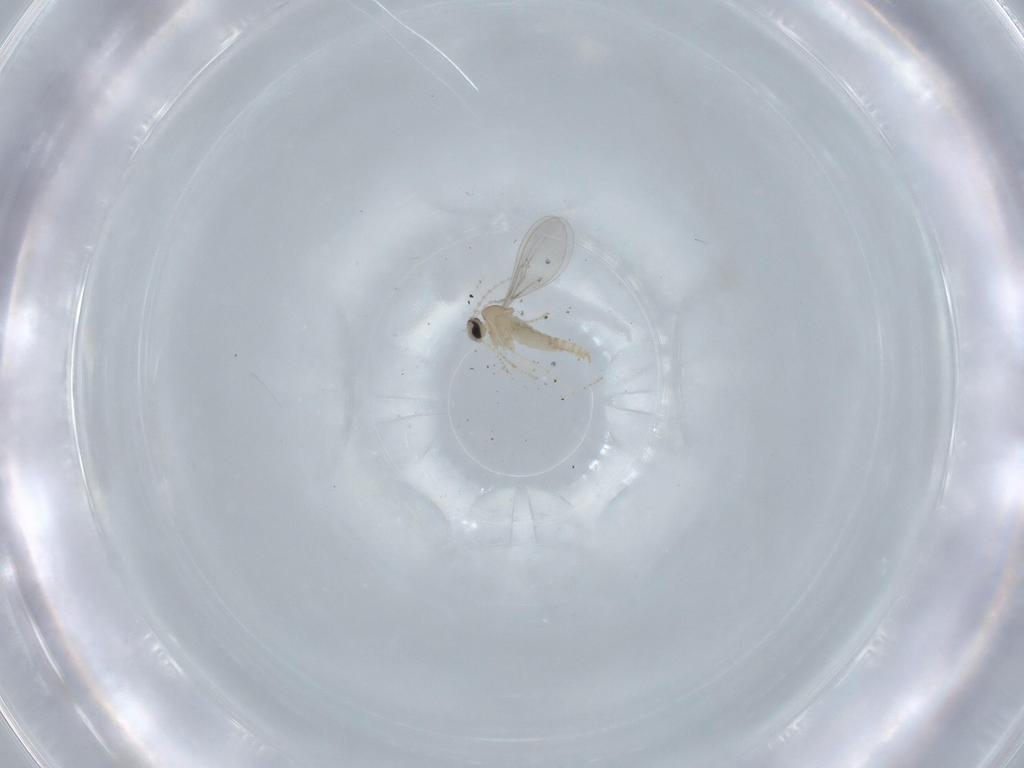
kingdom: Animalia
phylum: Arthropoda
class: Insecta
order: Diptera
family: Cecidomyiidae
